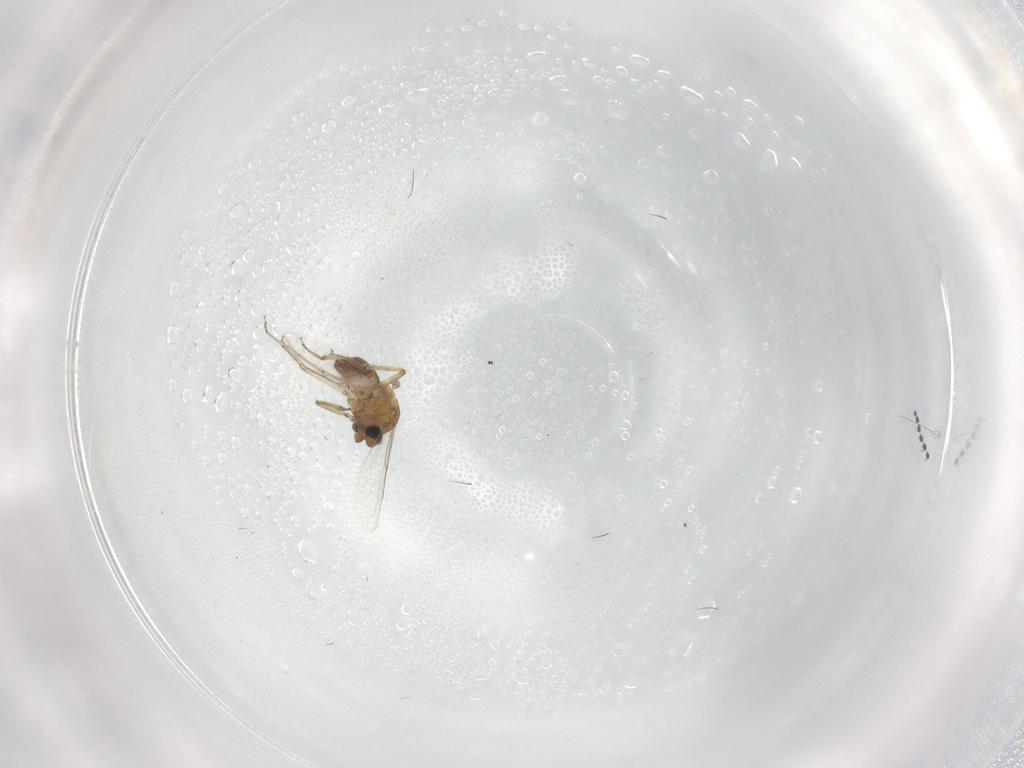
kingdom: Animalia
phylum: Arthropoda
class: Insecta
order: Diptera
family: Cecidomyiidae
